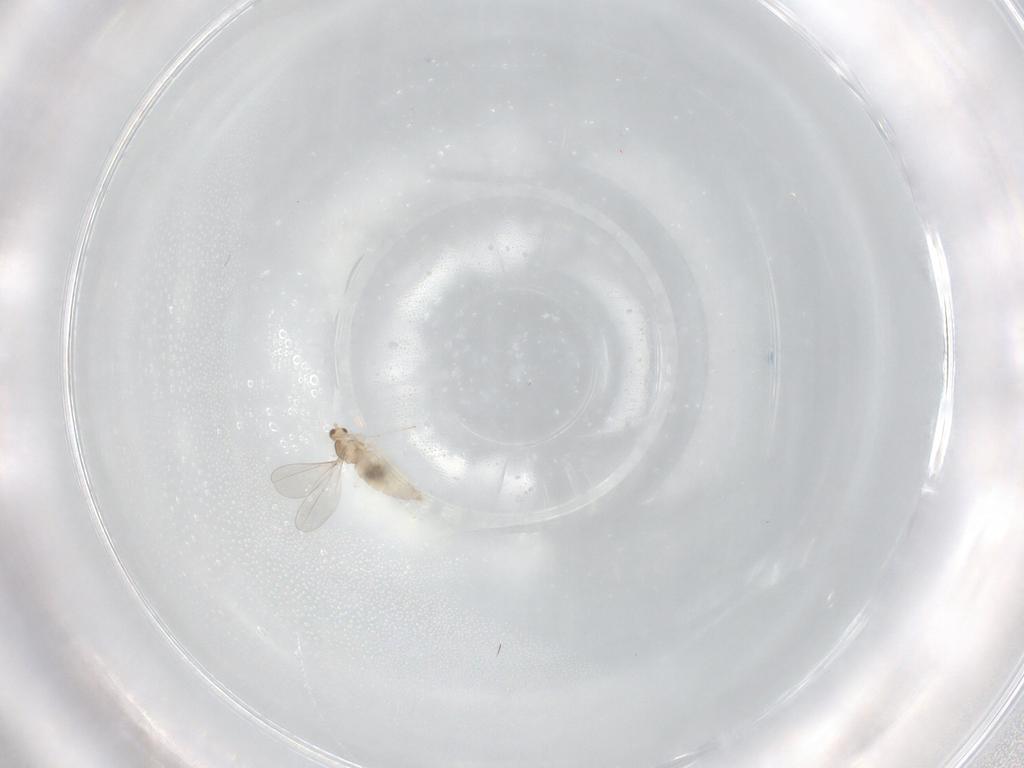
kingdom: Animalia
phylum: Arthropoda
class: Insecta
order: Diptera
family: Cecidomyiidae
